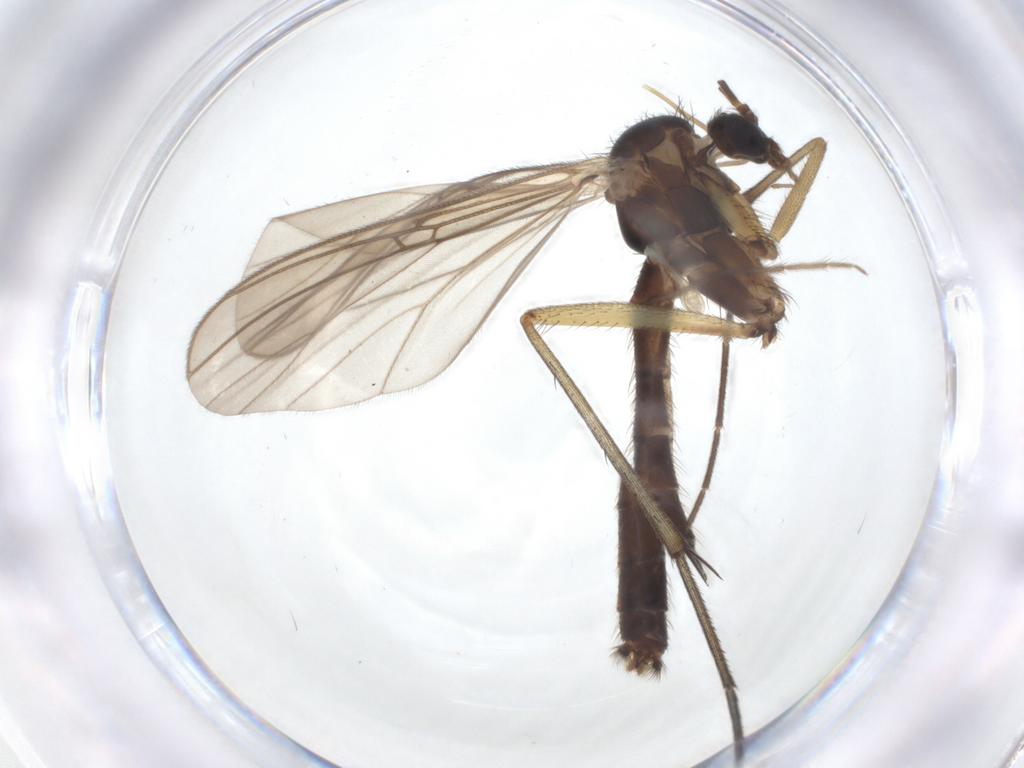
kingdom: Animalia
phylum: Arthropoda
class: Insecta
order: Diptera
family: Mycetophilidae
